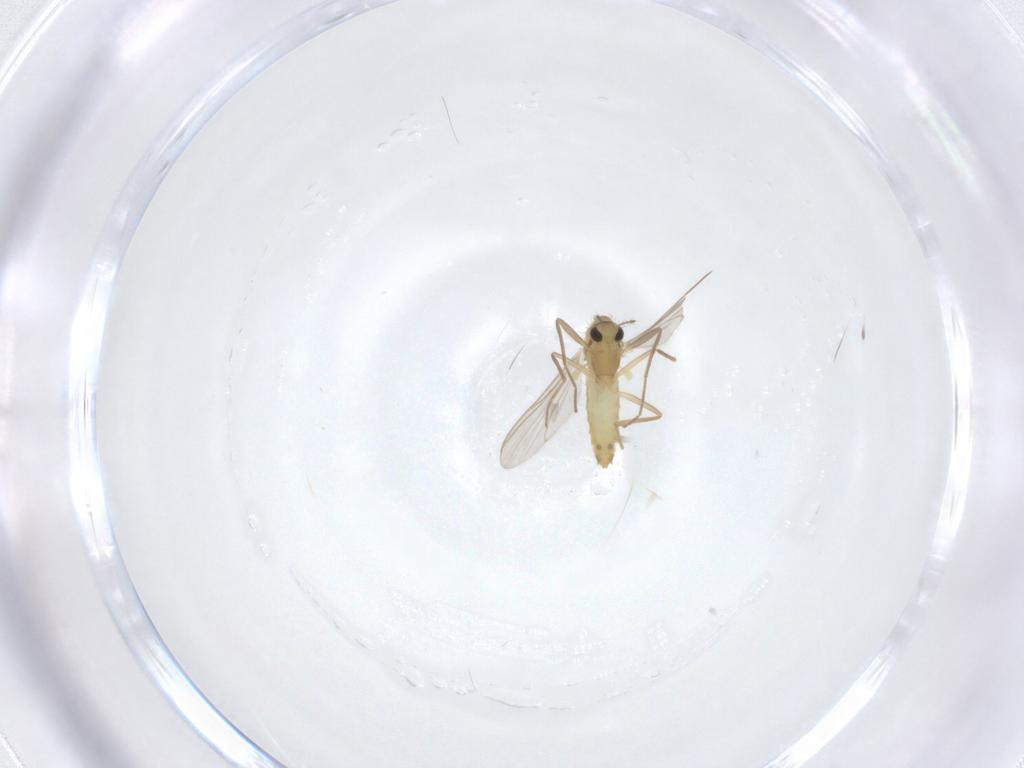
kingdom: Animalia
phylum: Arthropoda
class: Insecta
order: Diptera
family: Chironomidae
